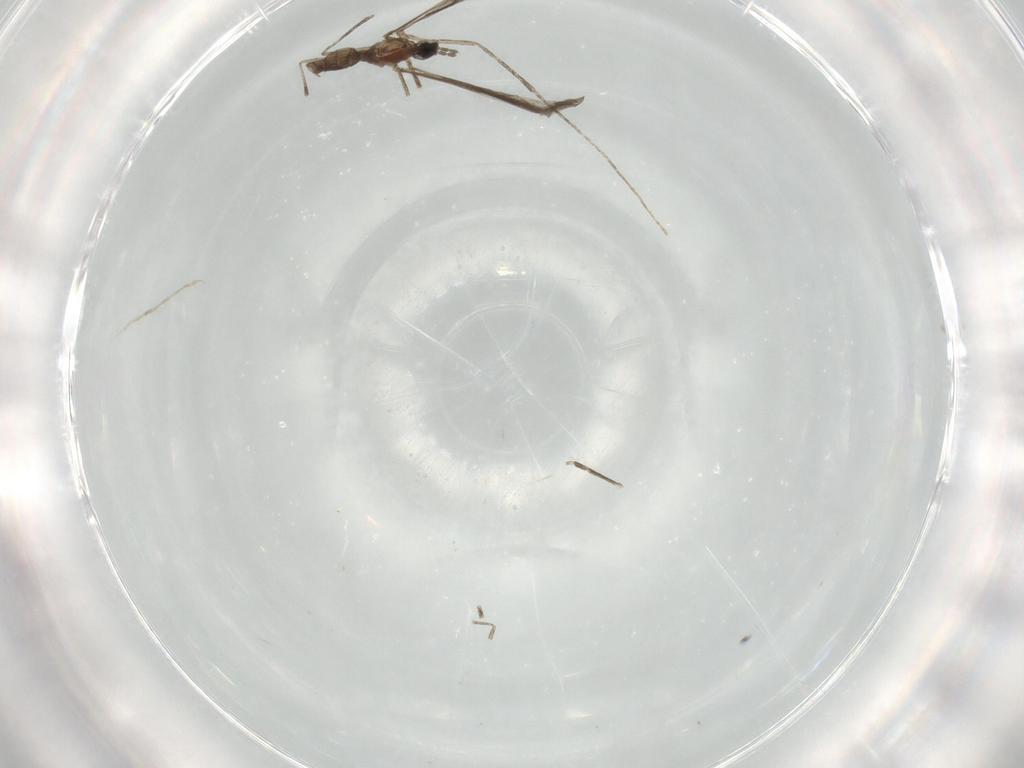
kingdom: Animalia
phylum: Arthropoda
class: Insecta
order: Diptera
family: Cecidomyiidae
